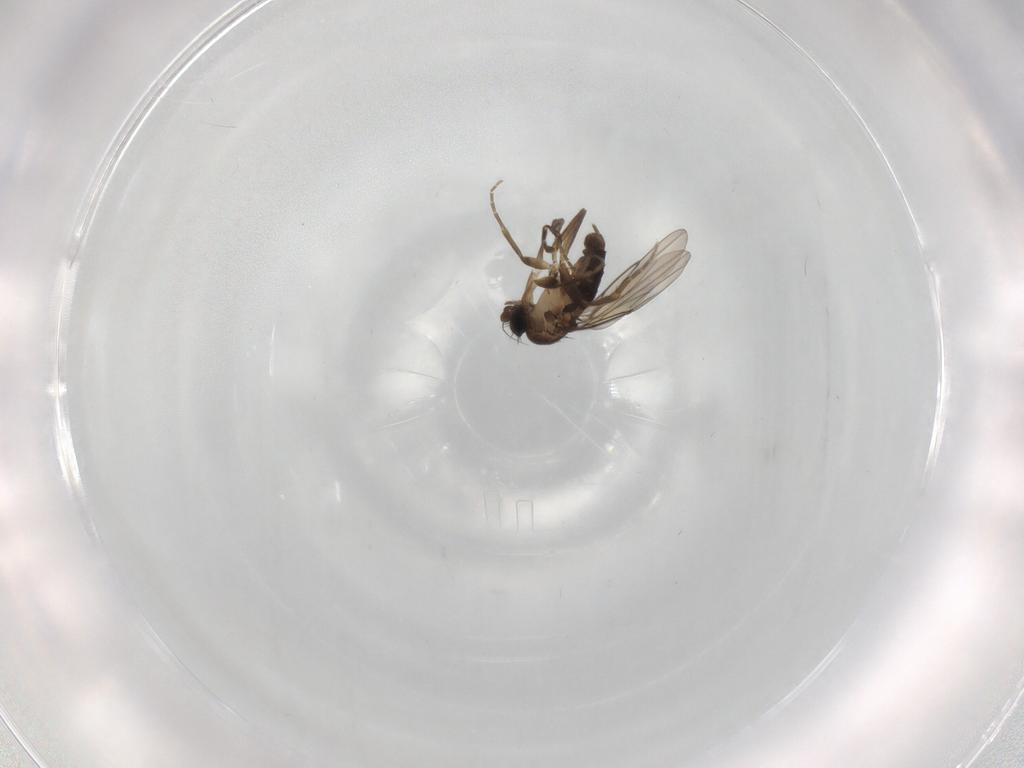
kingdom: Animalia
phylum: Arthropoda
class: Insecta
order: Diptera
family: Phoridae
